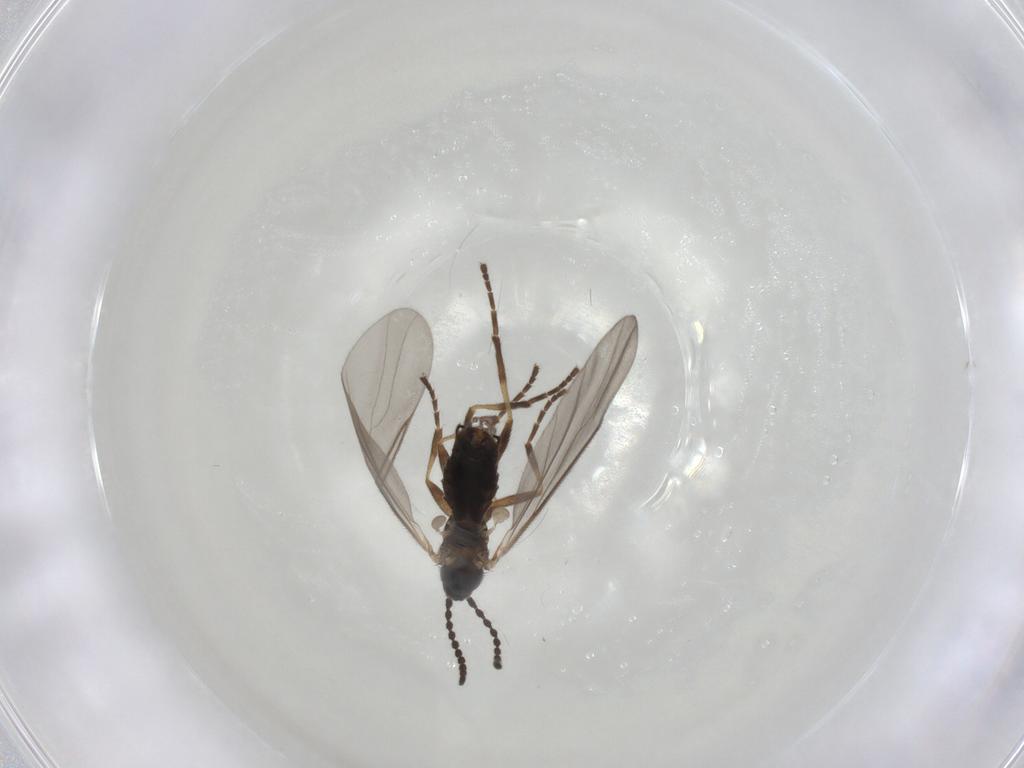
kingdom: Animalia
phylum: Arthropoda
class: Insecta
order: Diptera
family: Scatopsidae
